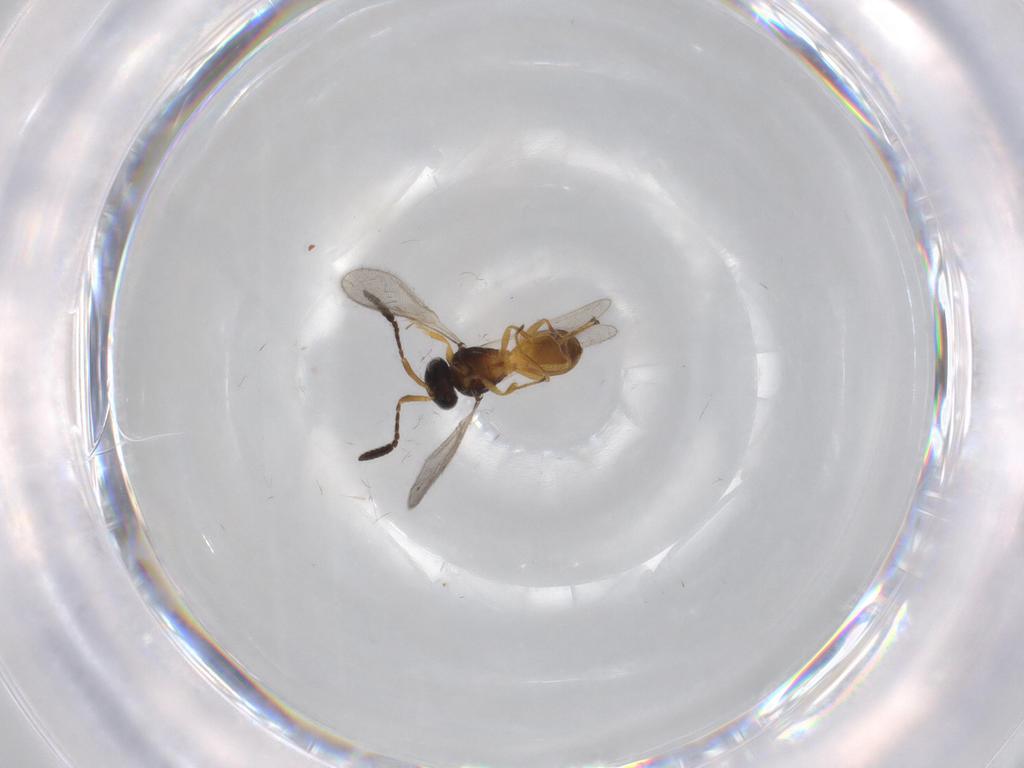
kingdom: Animalia
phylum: Arthropoda
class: Insecta
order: Hymenoptera
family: Scelionidae
